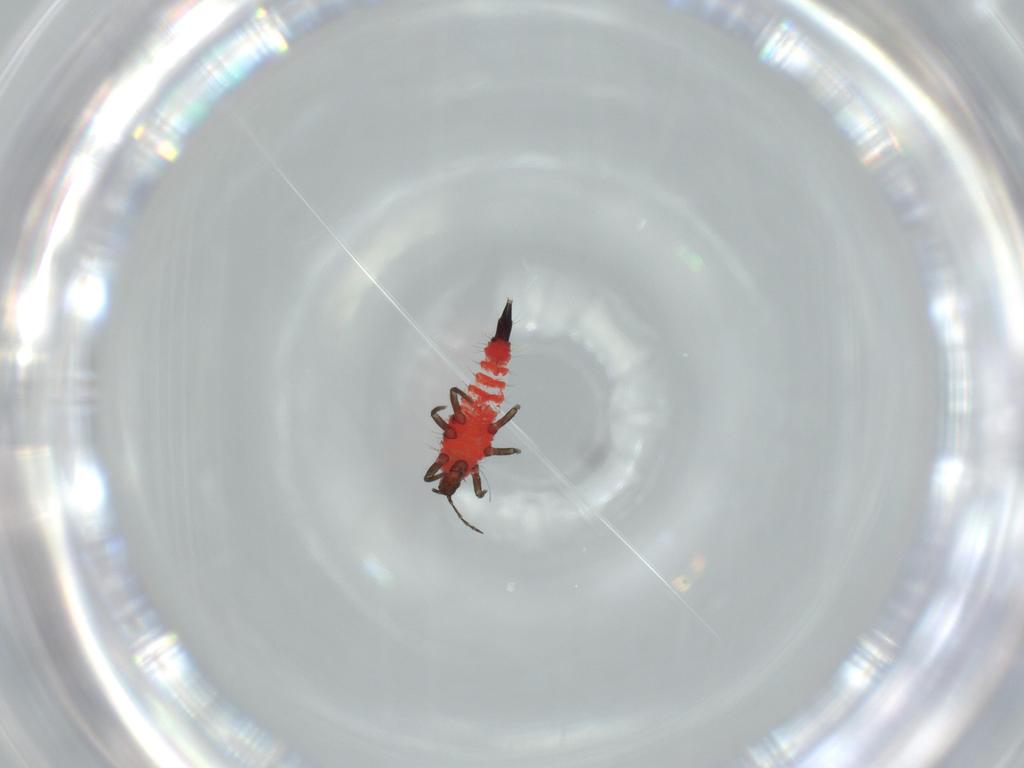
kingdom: Animalia
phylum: Arthropoda
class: Insecta
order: Thysanoptera
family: Phlaeothripidae
